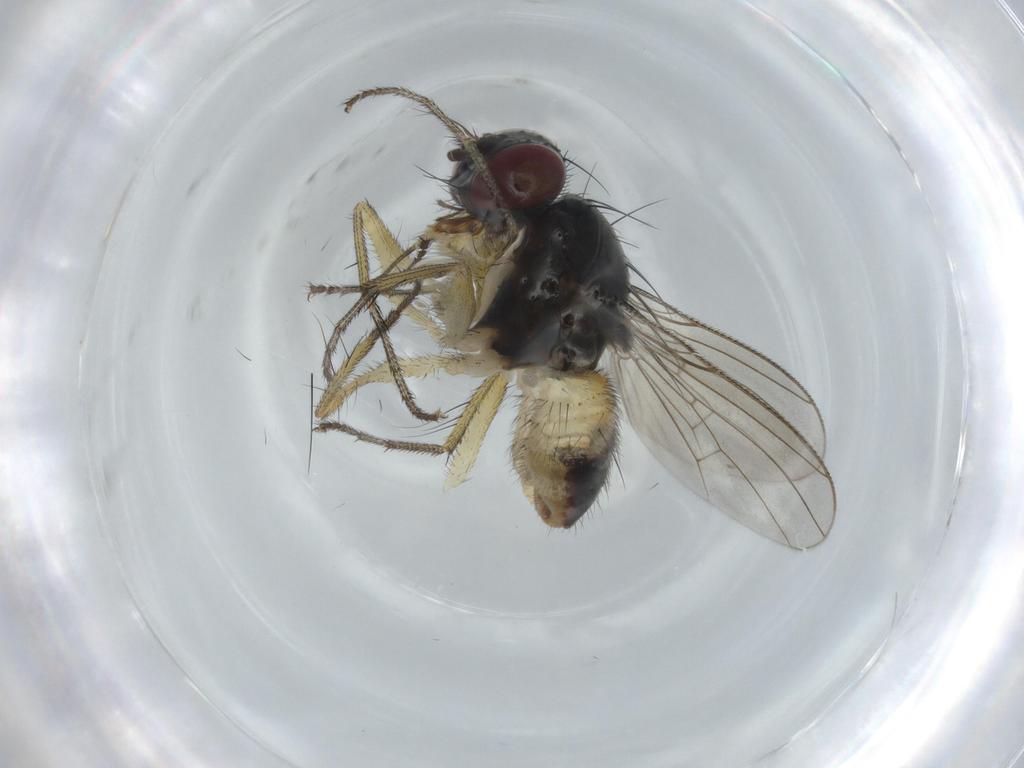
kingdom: Animalia
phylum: Arthropoda
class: Insecta
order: Diptera
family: Muscidae
